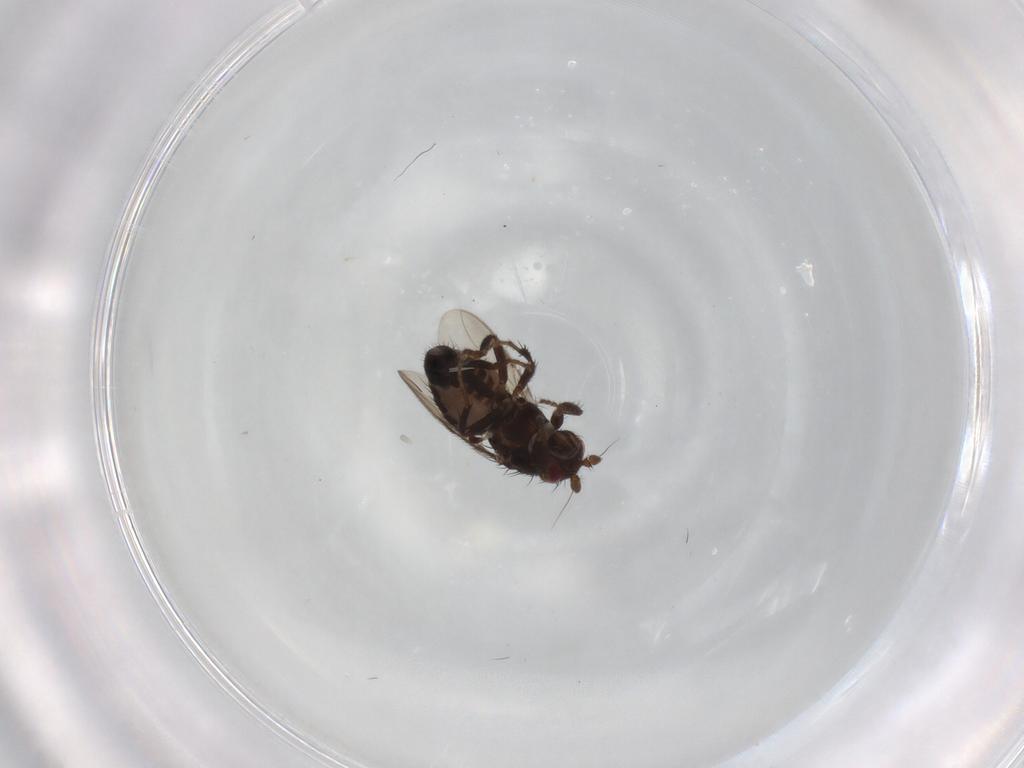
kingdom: Animalia
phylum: Arthropoda
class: Insecta
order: Diptera
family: Sphaeroceridae
